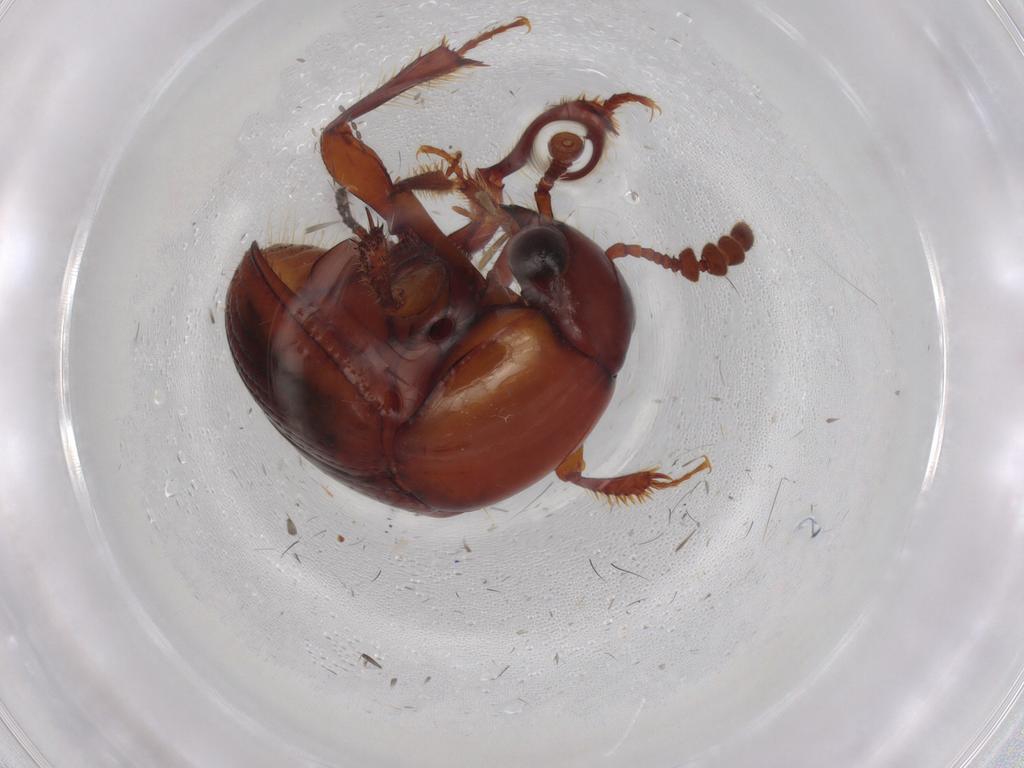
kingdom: Animalia
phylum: Arthropoda
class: Insecta
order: Coleoptera
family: Leiodidae
